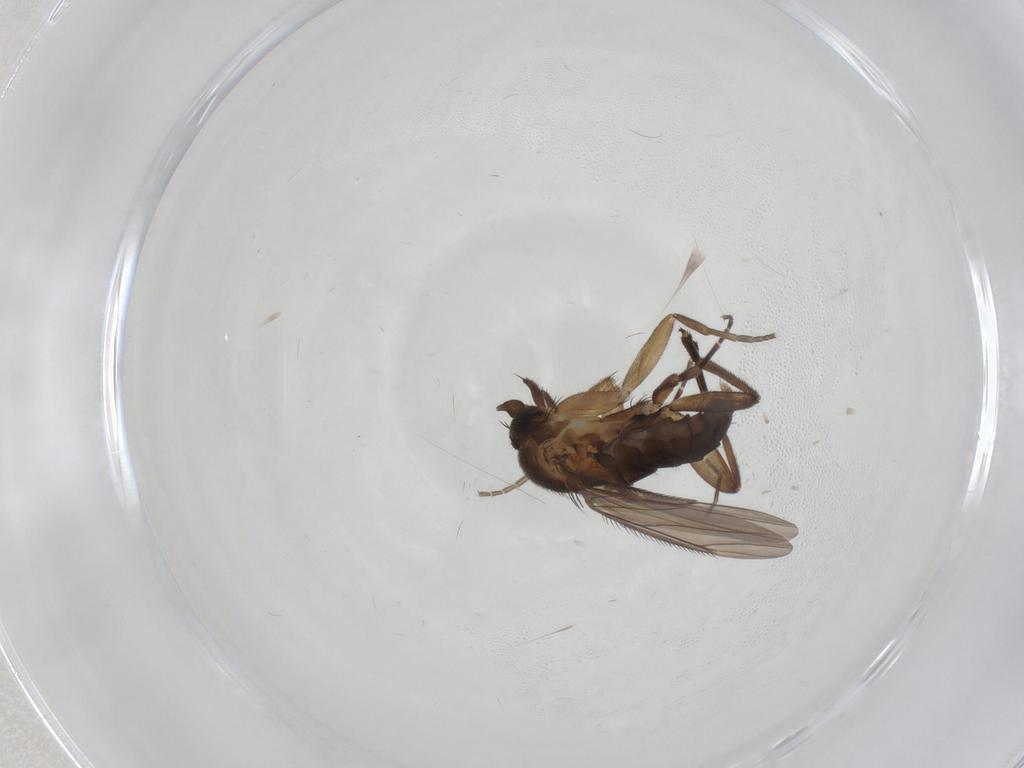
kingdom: Animalia
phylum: Arthropoda
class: Insecta
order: Diptera
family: Phoridae
